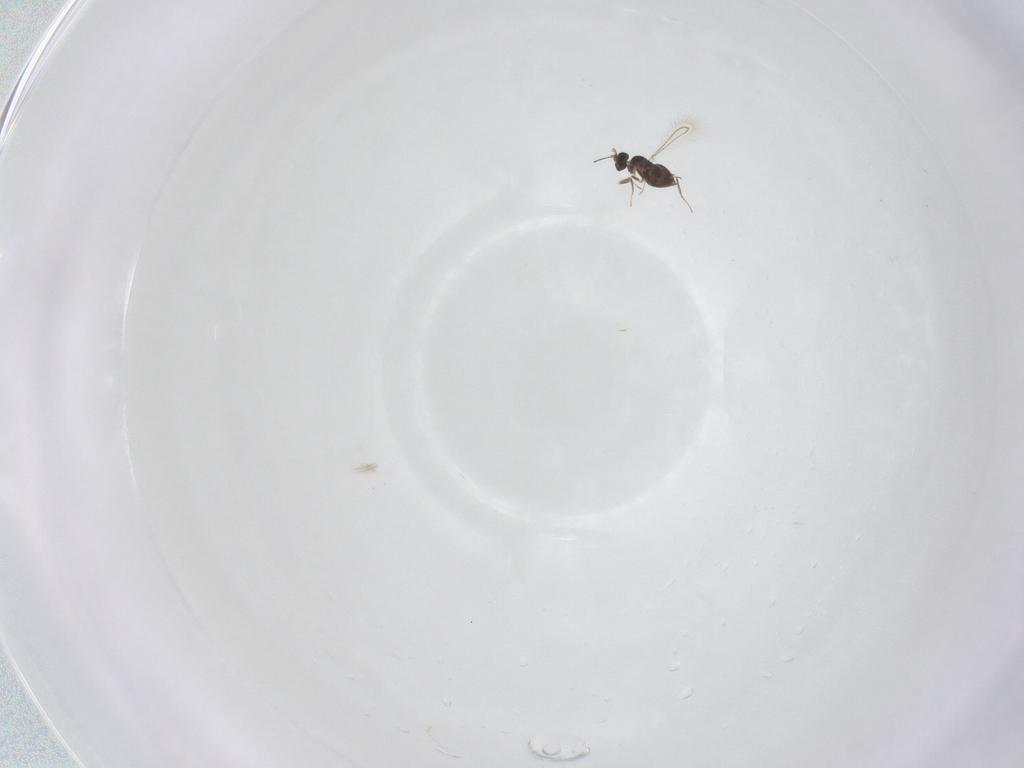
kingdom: Animalia
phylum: Arthropoda
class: Insecta
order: Hymenoptera
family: Mymaridae
